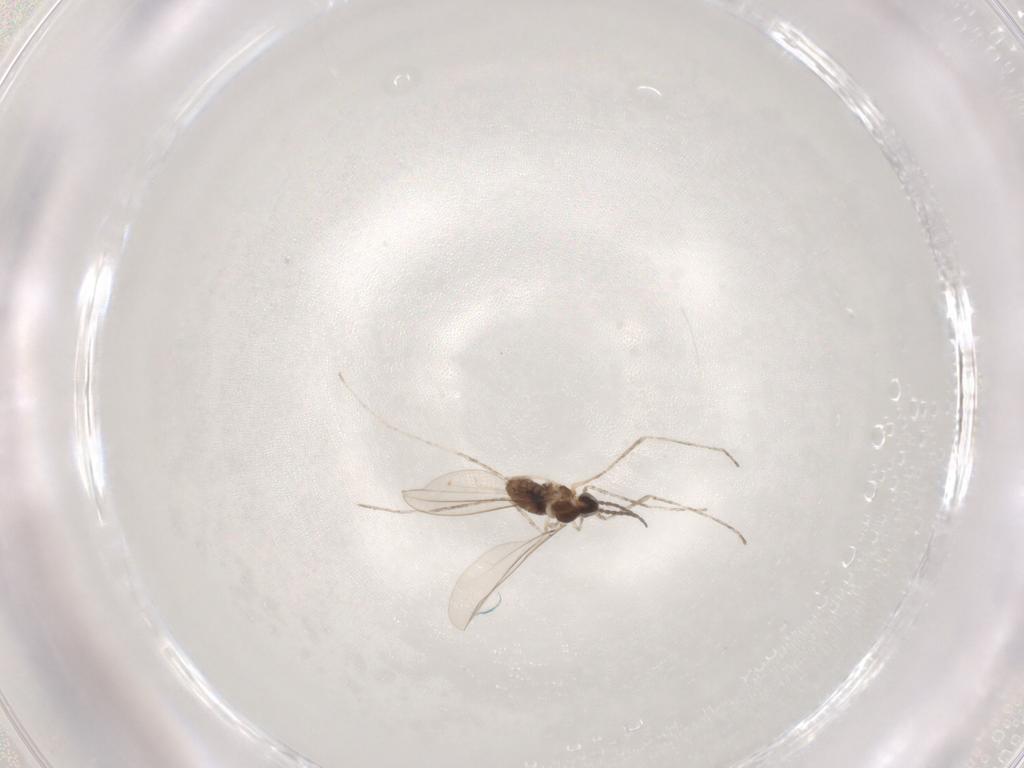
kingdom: Animalia
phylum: Arthropoda
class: Insecta
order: Diptera
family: Cecidomyiidae
